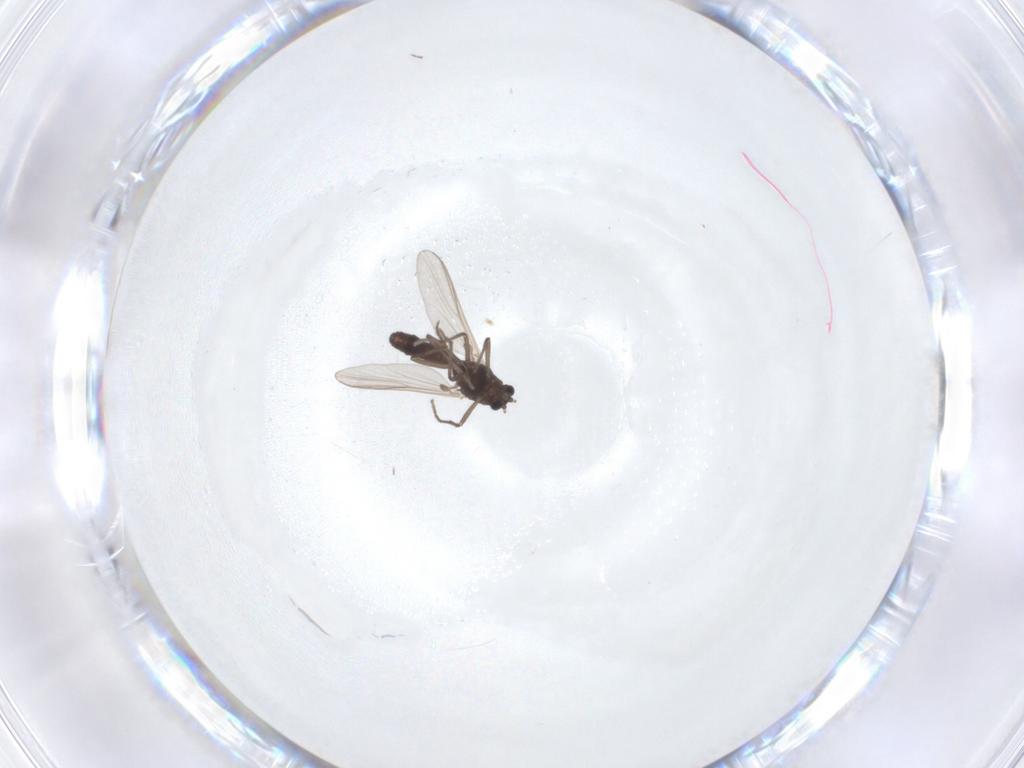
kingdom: Animalia
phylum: Arthropoda
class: Insecta
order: Diptera
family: Chironomidae
